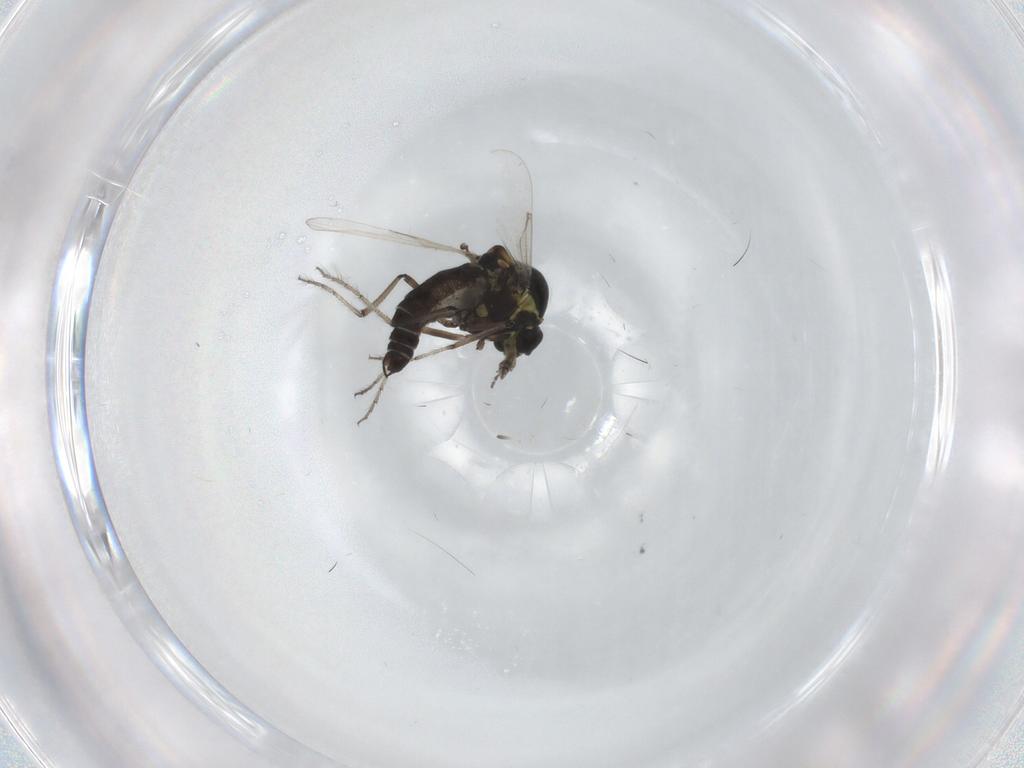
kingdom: Animalia
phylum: Arthropoda
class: Insecta
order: Diptera
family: Ceratopogonidae
